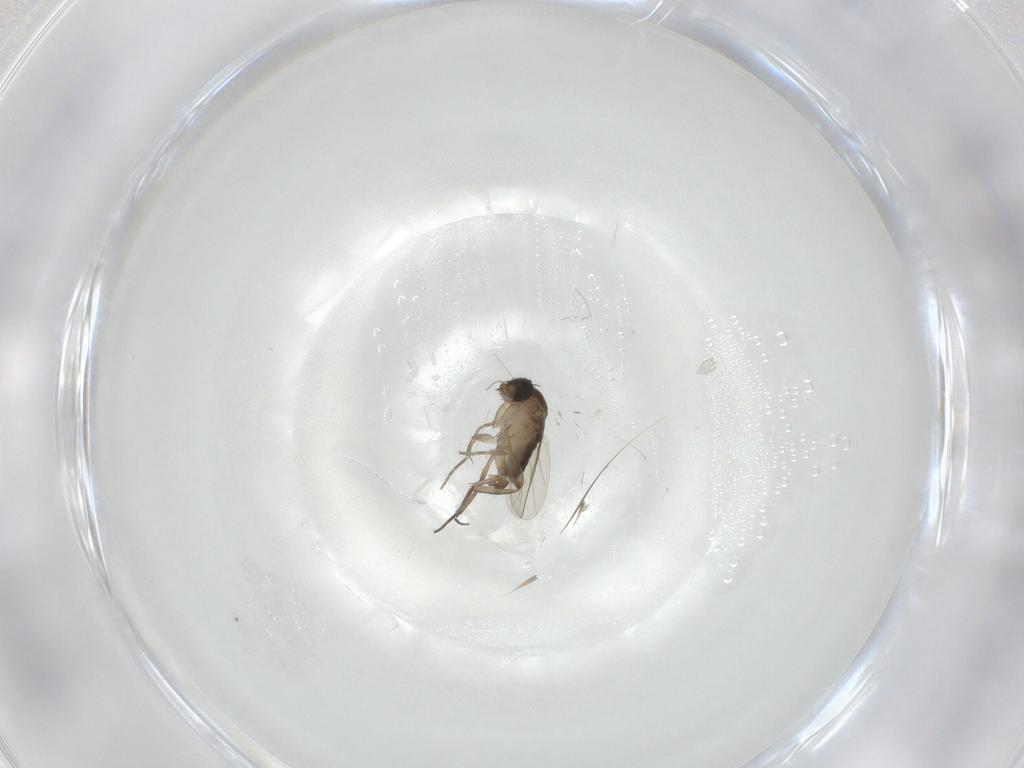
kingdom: Animalia
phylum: Arthropoda
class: Insecta
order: Diptera
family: Phoridae
